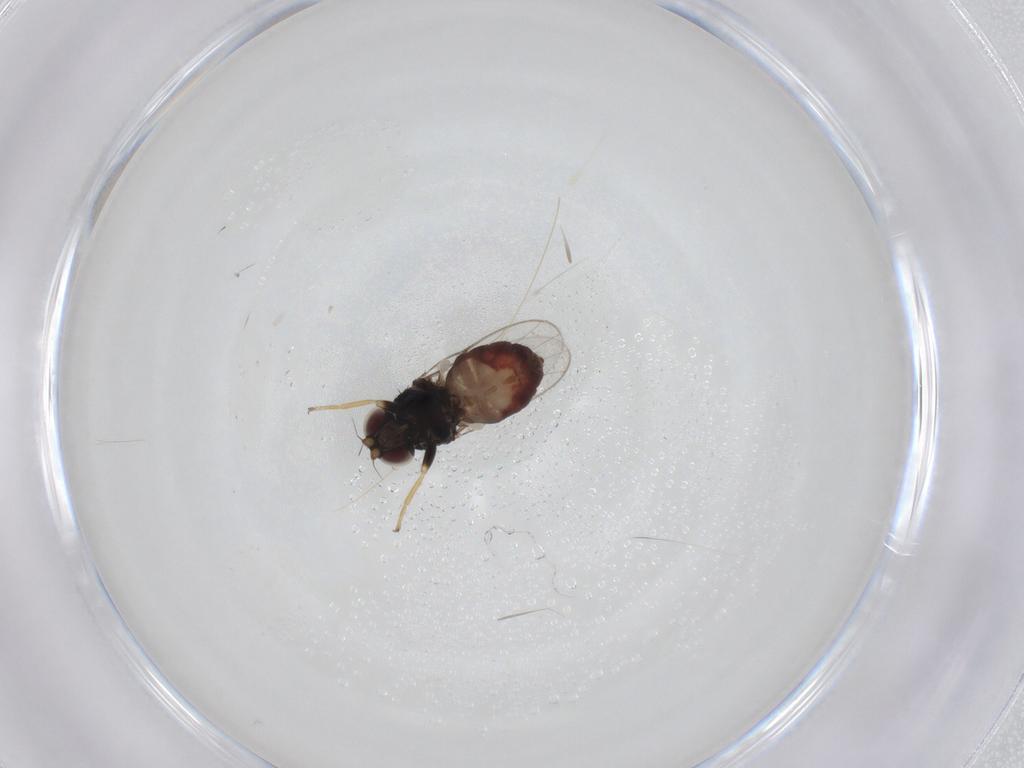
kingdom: Animalia
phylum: Arthropoda
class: Insecta
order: Diptera
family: Chloropidae
